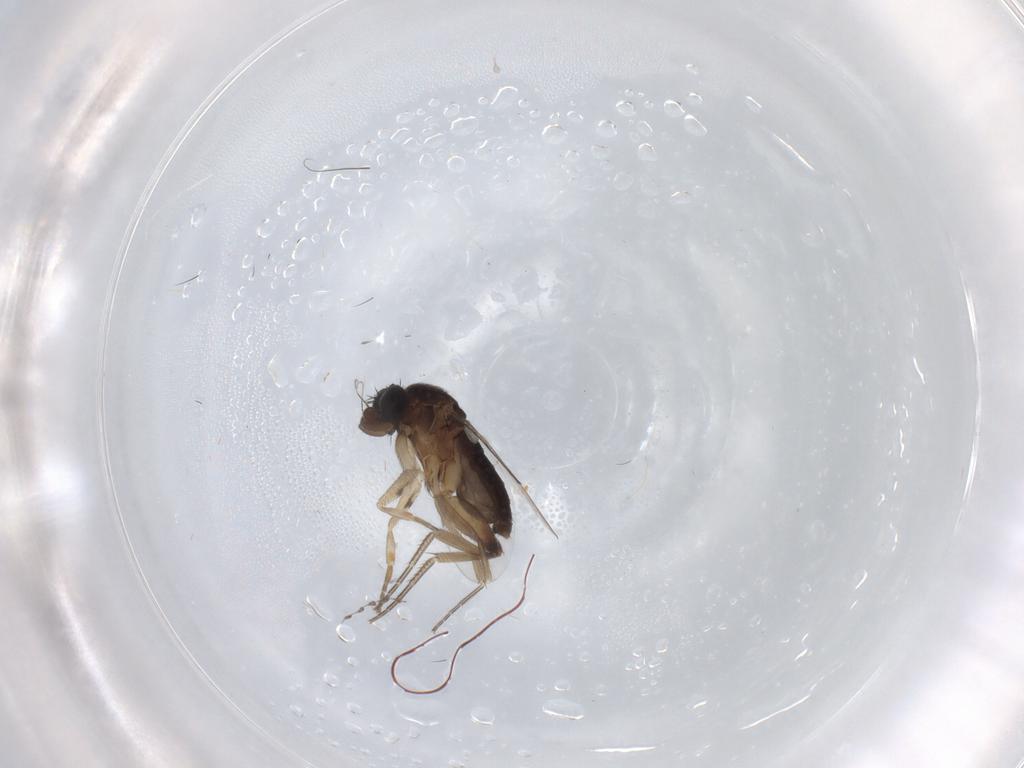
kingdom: Animalia
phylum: Arthropoda
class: Insecta
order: Diptera
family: Phoridae
